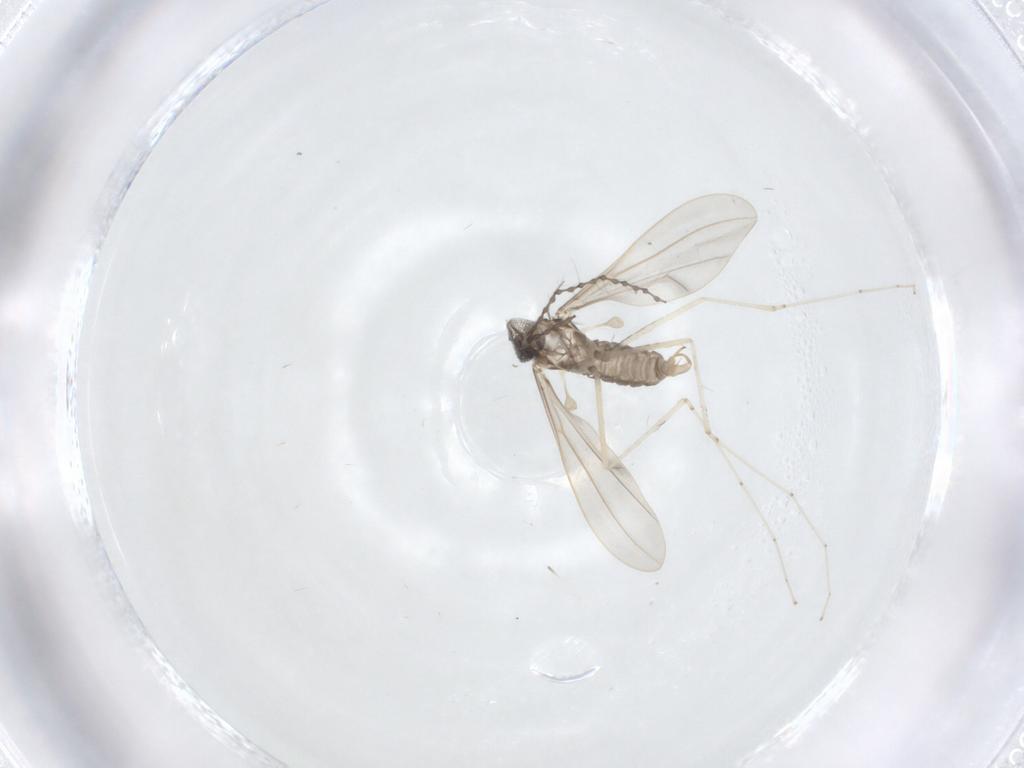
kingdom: Animalia
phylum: Arthropoda
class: Insecta
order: Diptera
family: Cecidomyiidae
